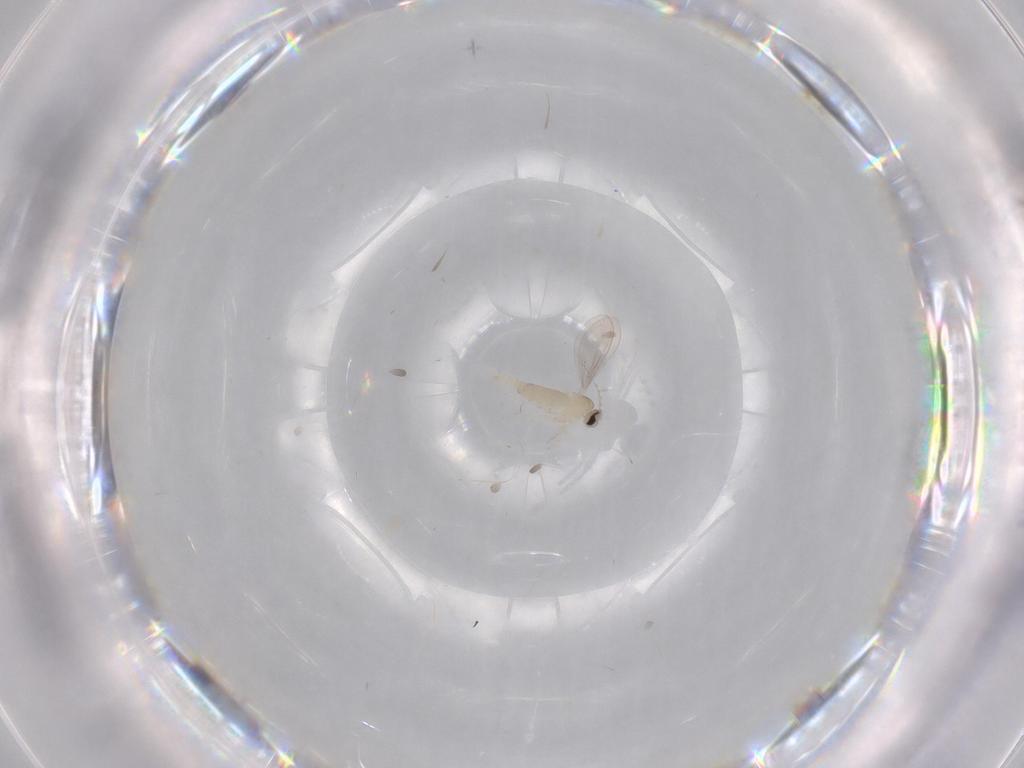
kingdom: Animalia
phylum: Arthropoda
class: Insecta
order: Diptera
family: Cecidomyiidae
